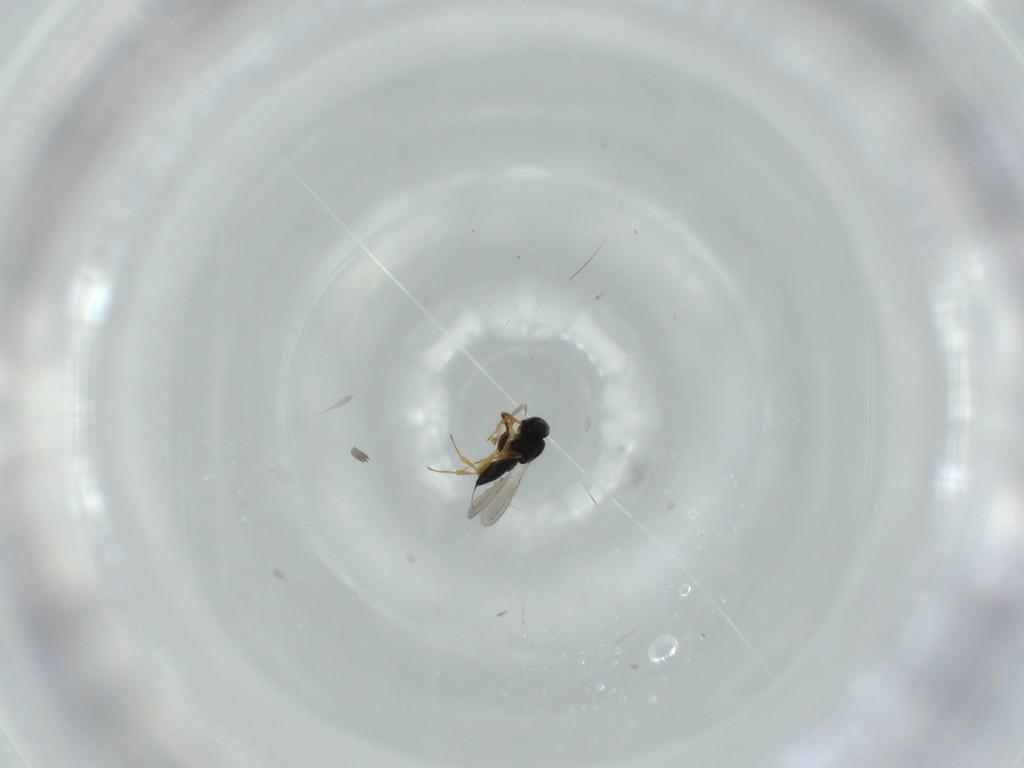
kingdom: Animalia
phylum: Arthropoda
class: Insecta
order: Hymenoptera
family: Scelionidae
